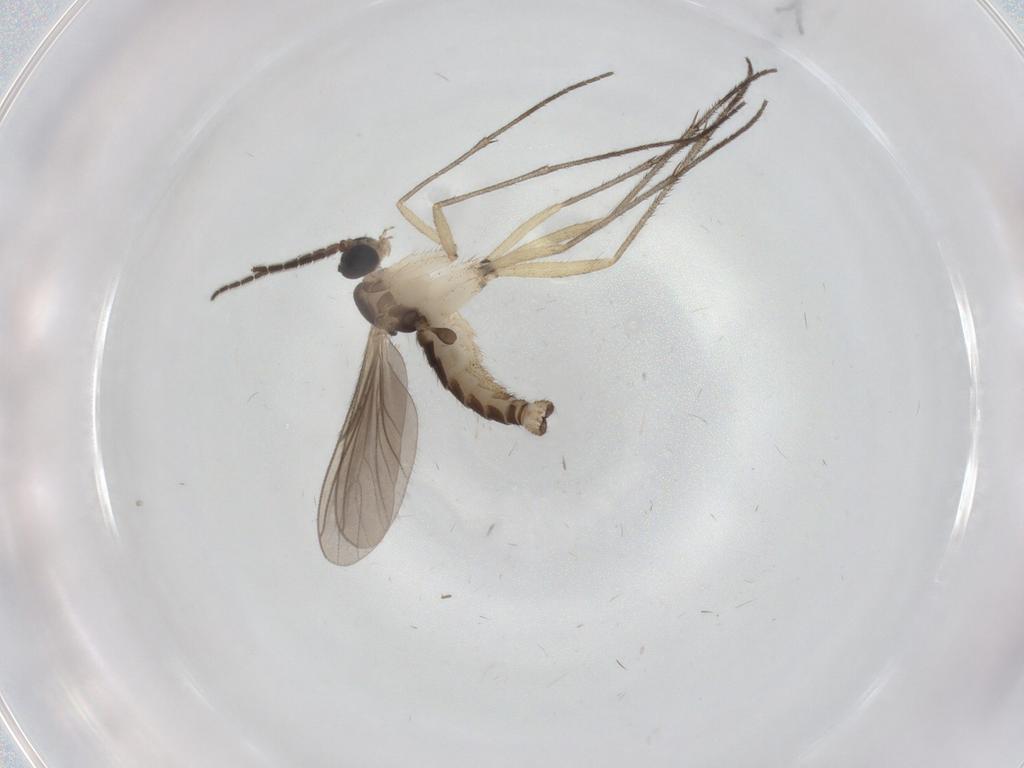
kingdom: Animalia
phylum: Arthropoda
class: Insecta
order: Diptera
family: Sciaridae
